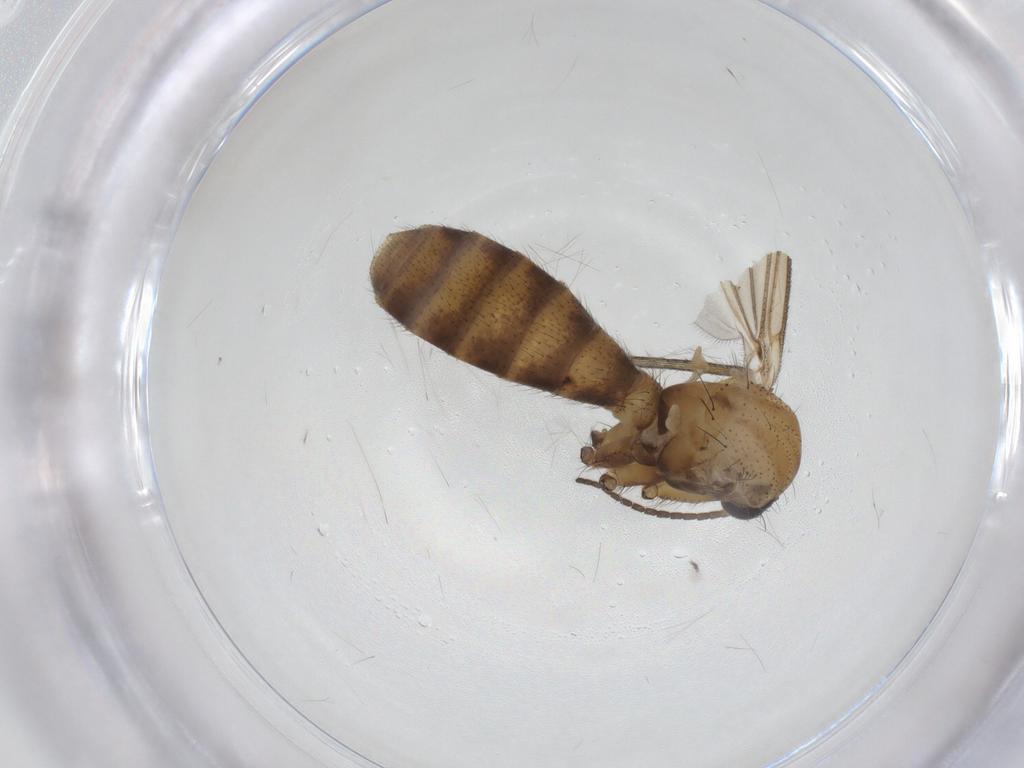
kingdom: Animalia
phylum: Arthropoda
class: Insecta
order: Diptera
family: Mycetophilidae
